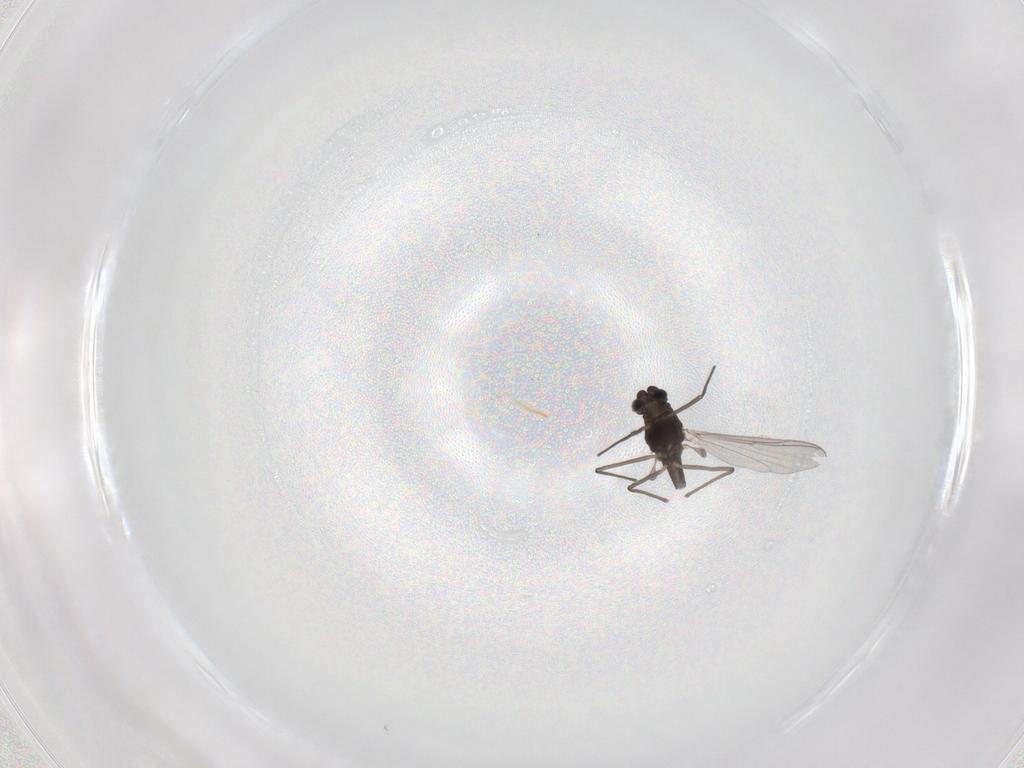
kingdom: Animalia
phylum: Arthropoda
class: Insecta
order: Diptera
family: Chironomidae
